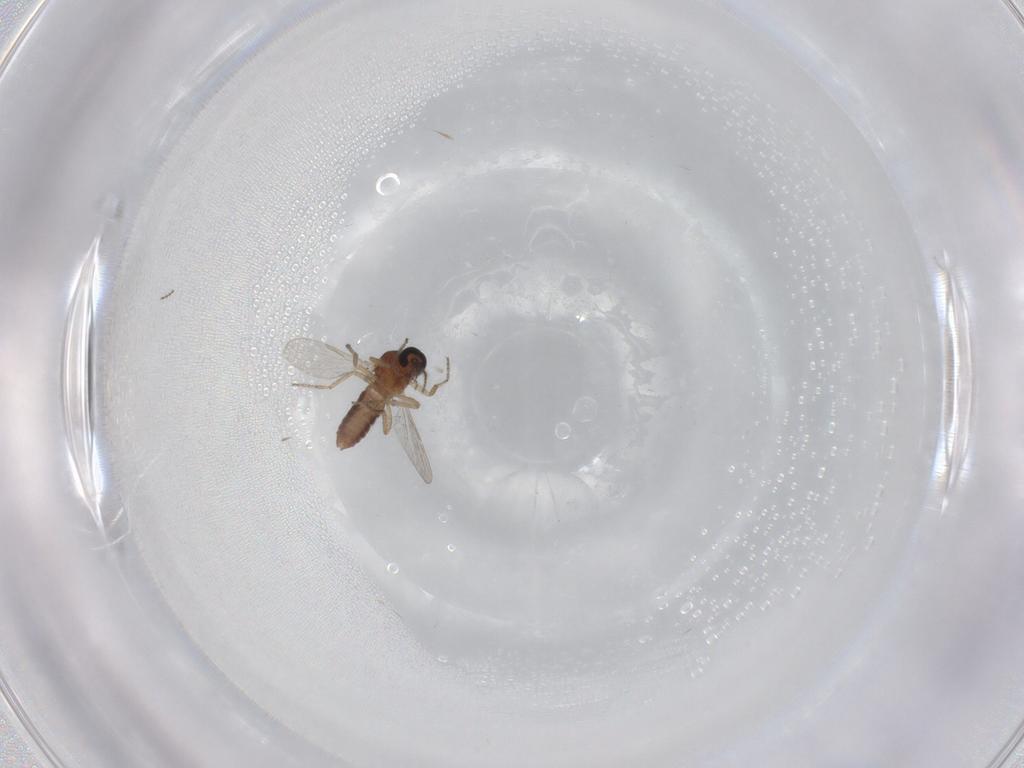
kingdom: Animalia
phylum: Arthropoda
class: Insecta
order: Diptera
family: Ceratopogonidae
